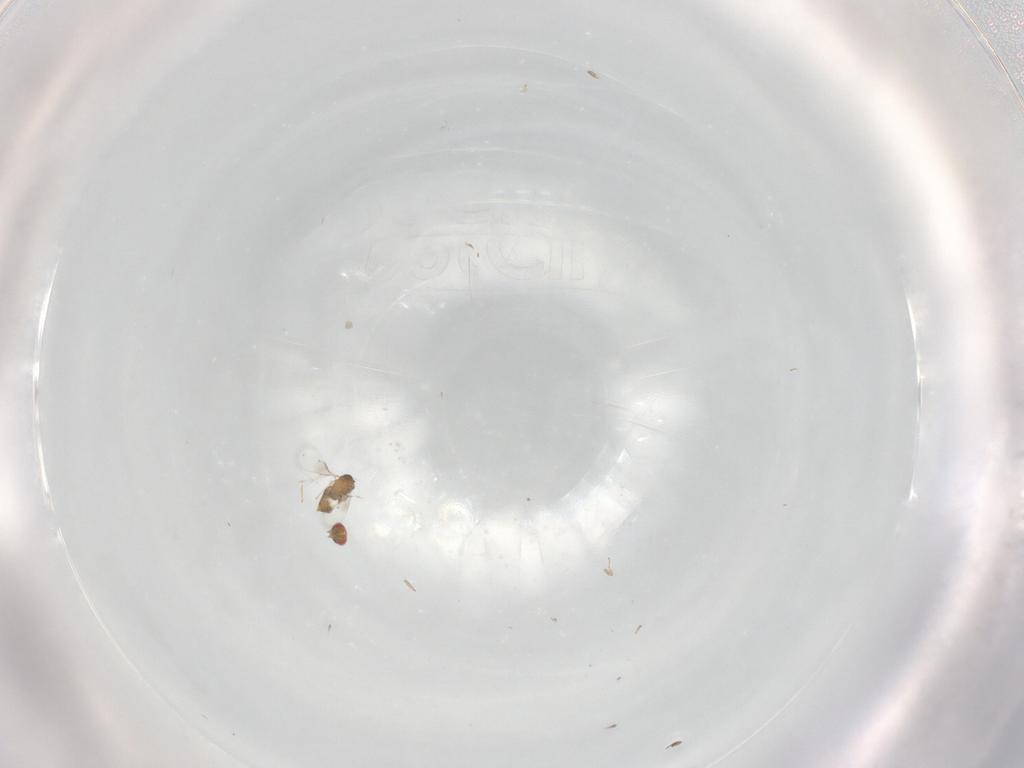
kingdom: Animalia
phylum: Arthropoda
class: Insecta
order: Hymenoptera
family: Trichogrammatidae
